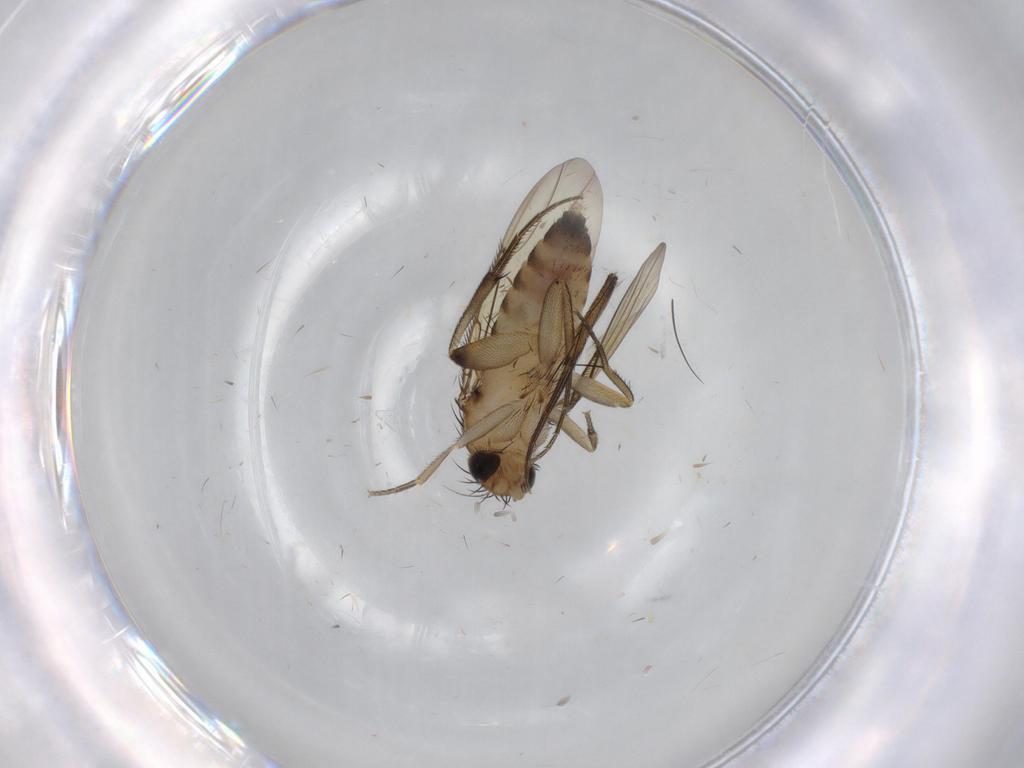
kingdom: Animalia
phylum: Arthropoda
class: Insecta
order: Diptera
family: Phoridae
